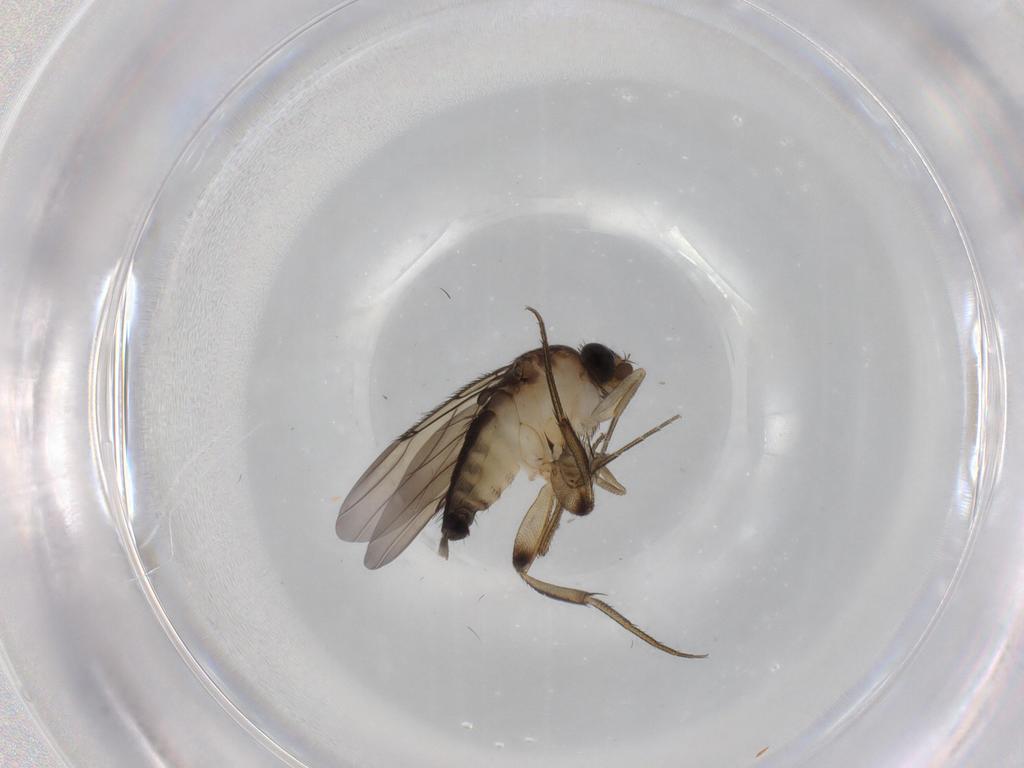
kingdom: Animalia
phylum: Arthropoda
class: Insecta
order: Diptera
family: Phoridae
